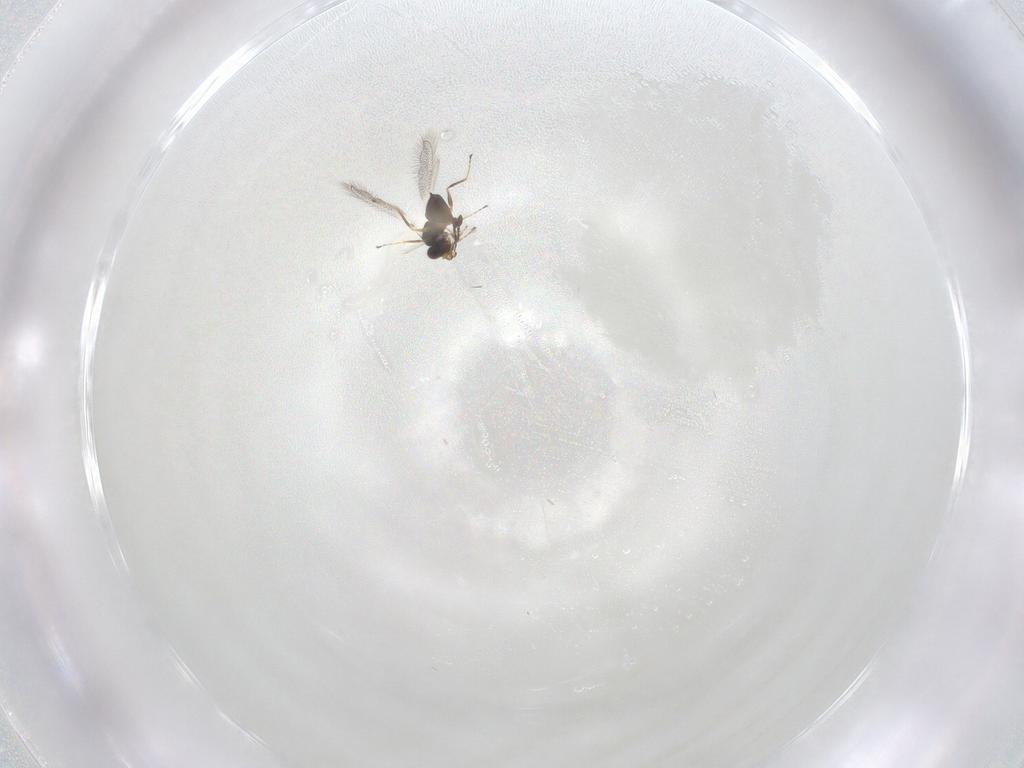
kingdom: Animalia
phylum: Arthropoda
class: Insecta
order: Hymenoptera
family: Mymaridae
